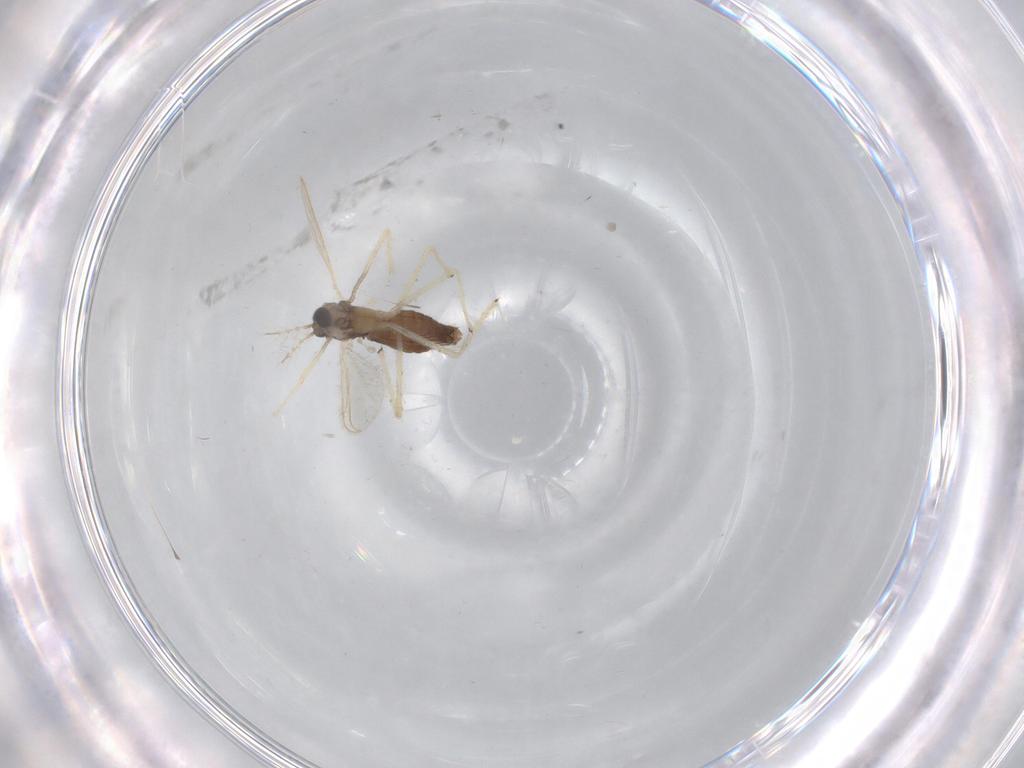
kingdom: Animalia
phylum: Arthropoda
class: Insecta
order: Diptera
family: Chironomidae
